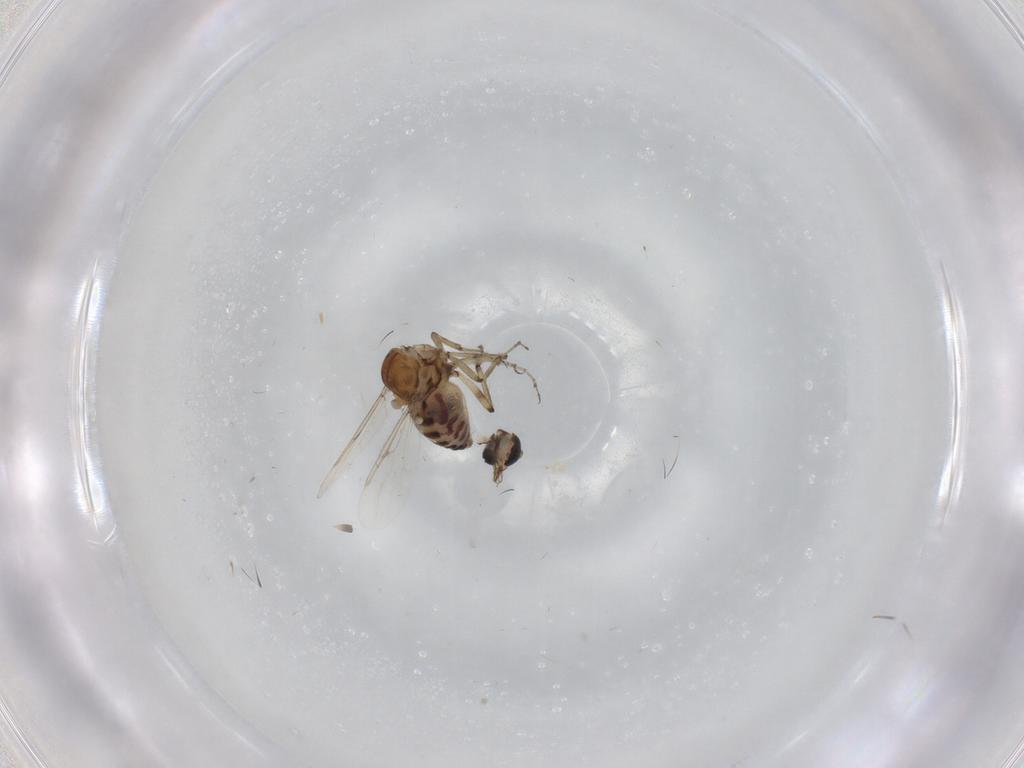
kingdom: Animalia
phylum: Arthropoda
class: Insecta
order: Diptera
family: Ceratopogonidae
